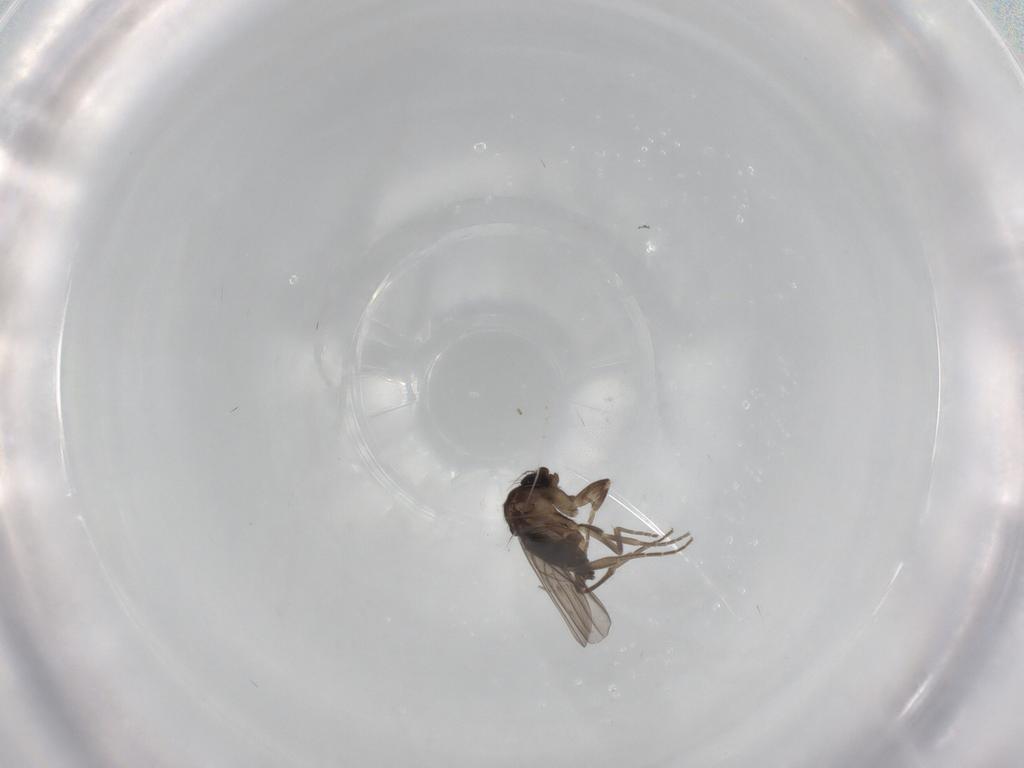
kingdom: Animalia
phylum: Arthropoda
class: Insecta
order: Diptera
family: Phoridae
